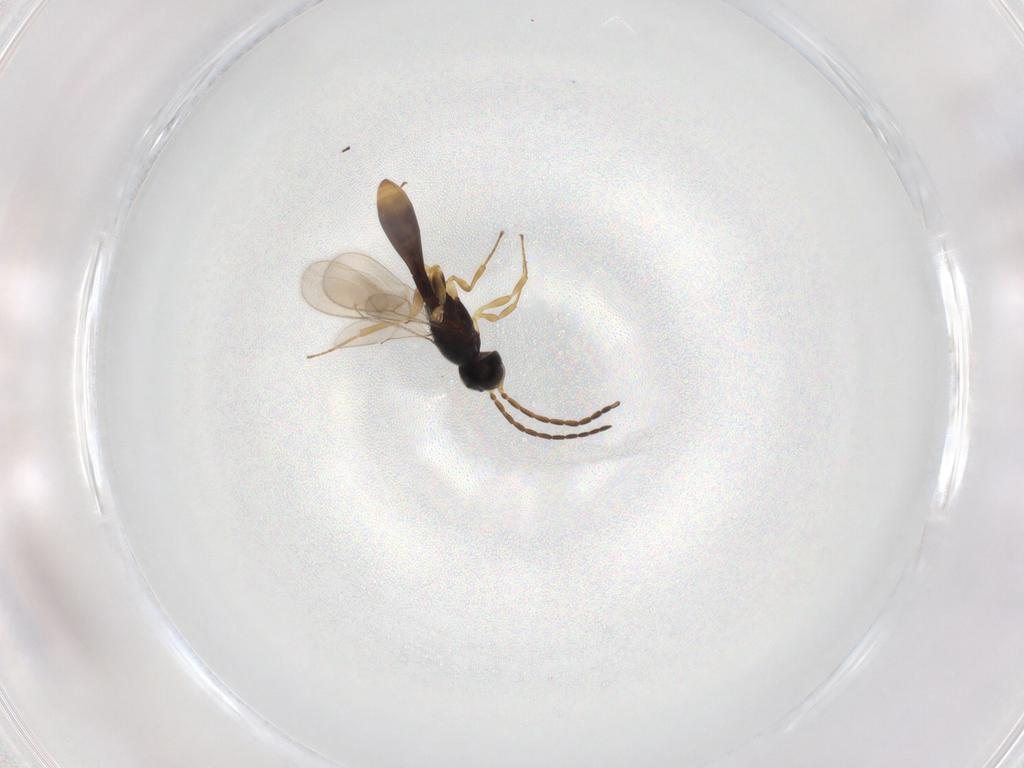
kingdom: Animalia
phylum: Arthropoda
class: Insecta
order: Hymenoptera
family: Scelionidae
